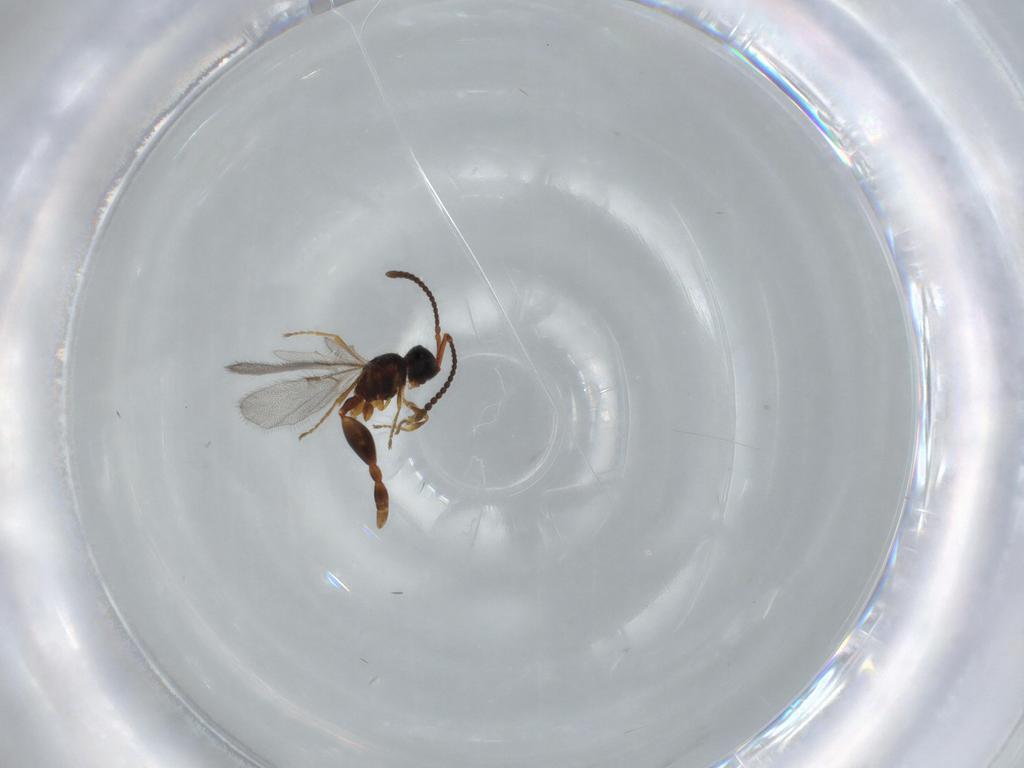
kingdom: Animalia
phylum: Arthropoda
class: Insecta
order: Hymenoptera
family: Diapriidae
